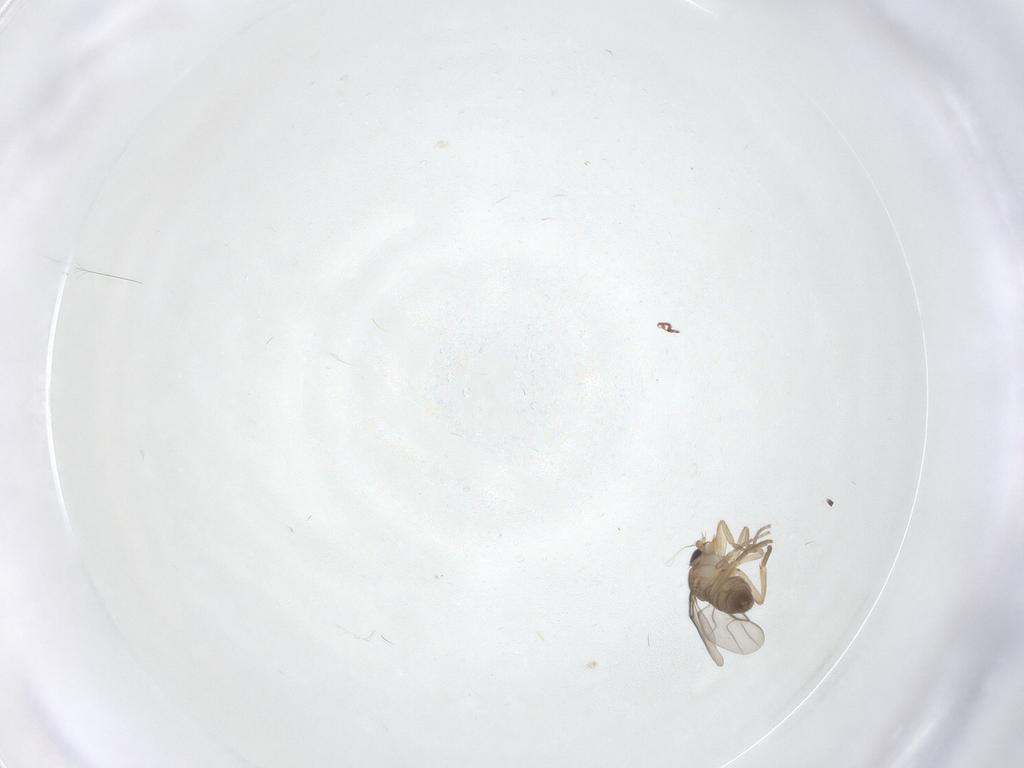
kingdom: Animalia
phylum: Arthropoda
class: Insecta
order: Diptera
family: Phoridae
